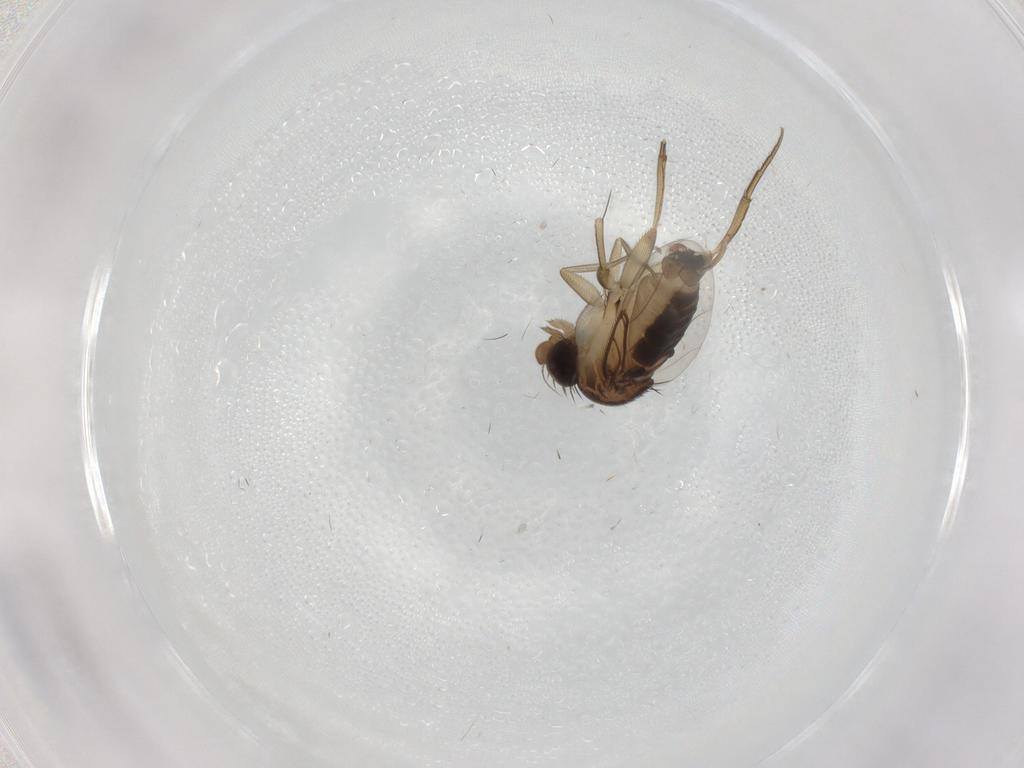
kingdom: Animalia
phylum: Arthropoda
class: Insecta
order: Diptera
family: Phoridae
